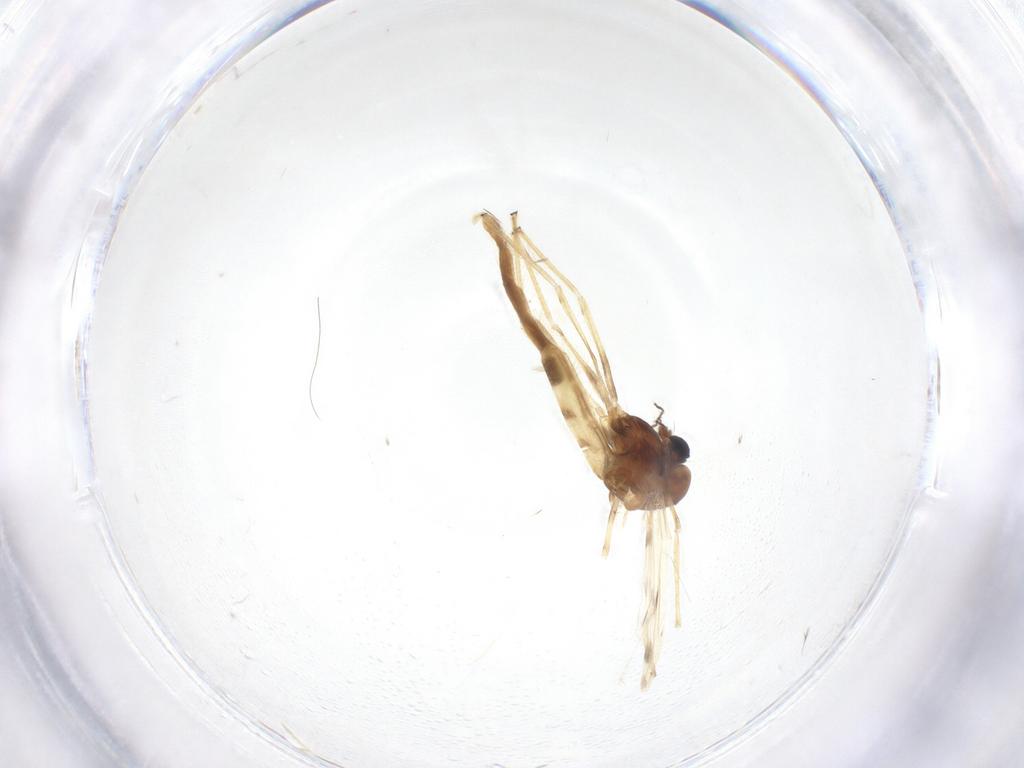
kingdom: Animalia
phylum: Arthropoda
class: Insecta
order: Diptera
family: Chironomidae
